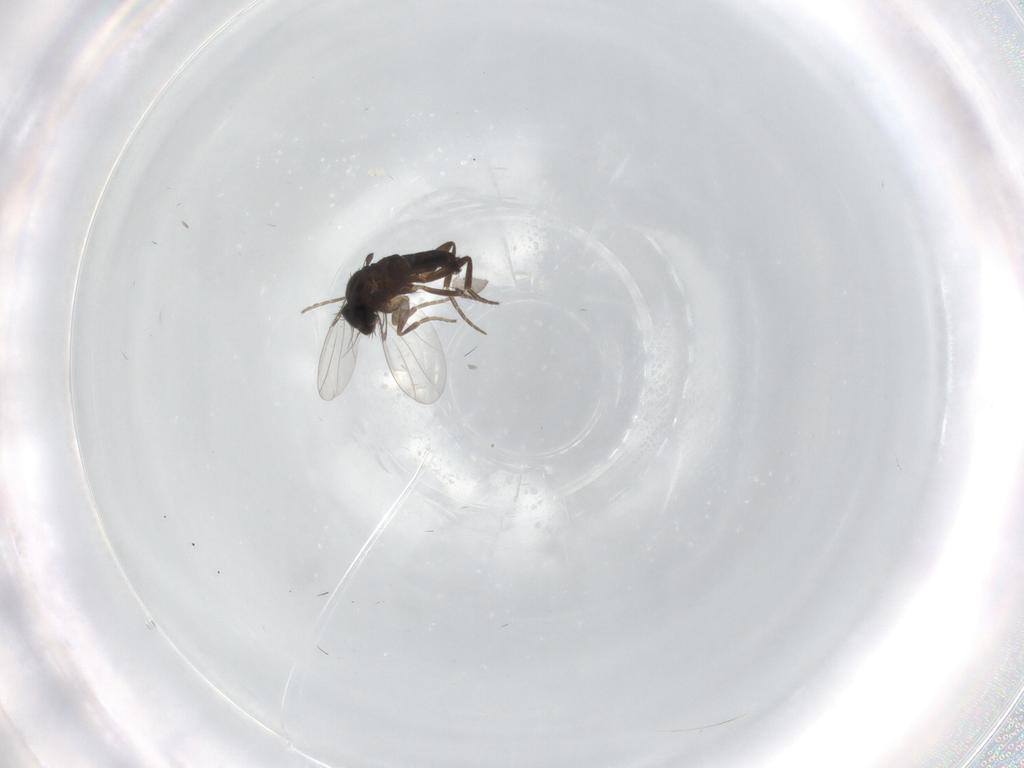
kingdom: Animalia
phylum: Arthropoda
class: Insecta
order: Diptera
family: Phoridae
